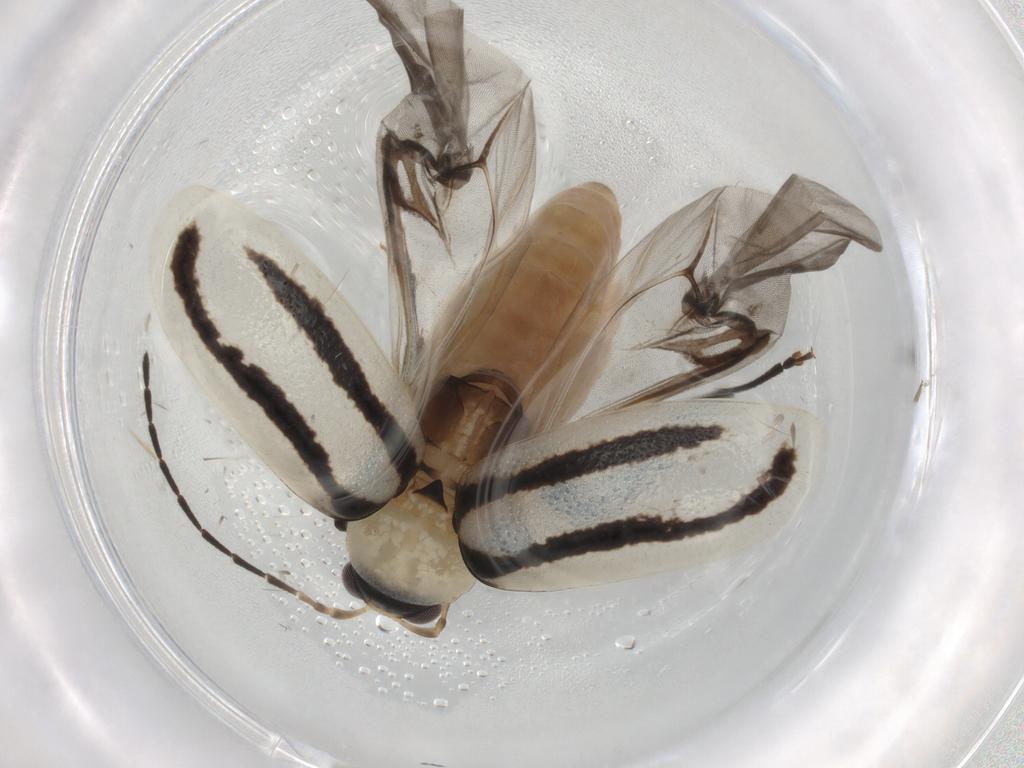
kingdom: Animalia
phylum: Arthropoda
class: Insecta
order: Coleoptera
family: Chrysomelidae
